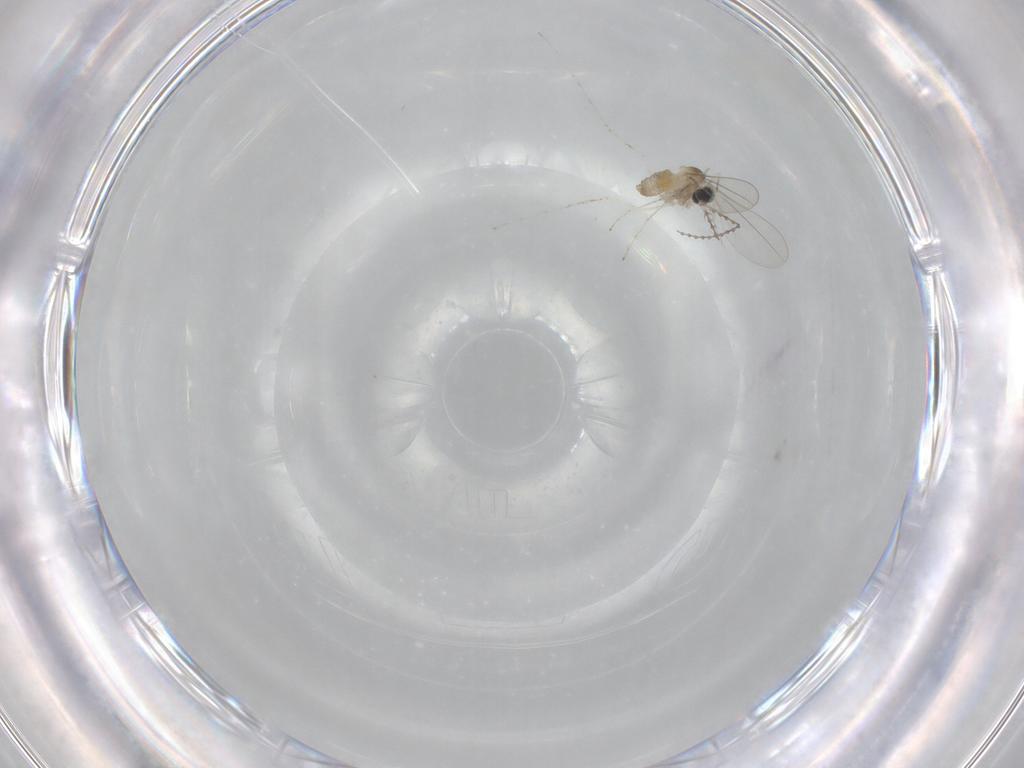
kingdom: Animalia
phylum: Arthropoda
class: Insecta
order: Diptera
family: Cecidomyiidae
